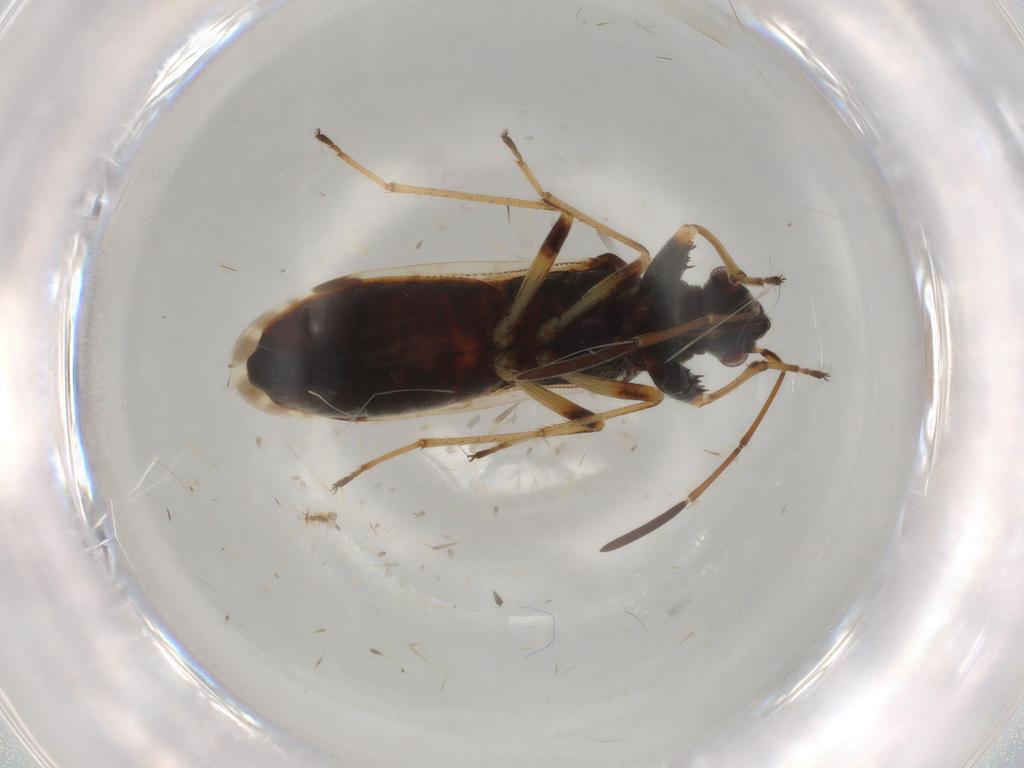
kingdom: Animalia
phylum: Arthropoda
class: Insecta
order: Hemiptera
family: Rhyparochromidae
